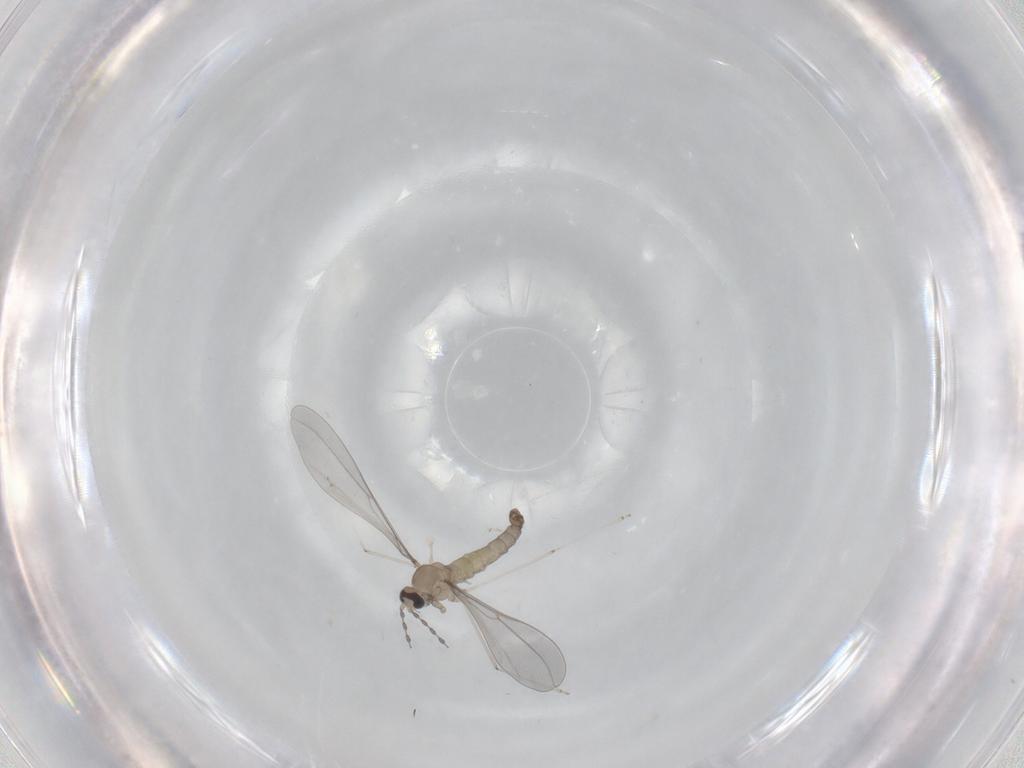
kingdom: Animalia
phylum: Arthropoda
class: Insecta
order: Diptera
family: Cecidomyiidae
